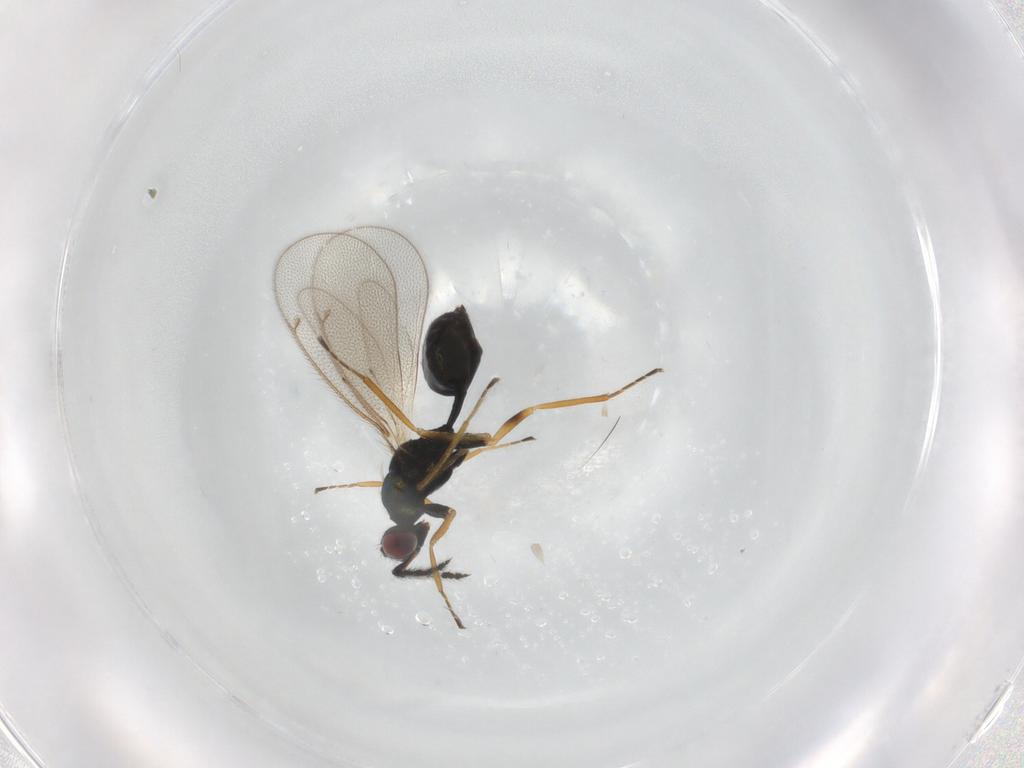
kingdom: Animalia
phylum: Arthropoda
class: Insecta
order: Hymenoptera
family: Eulophidae
